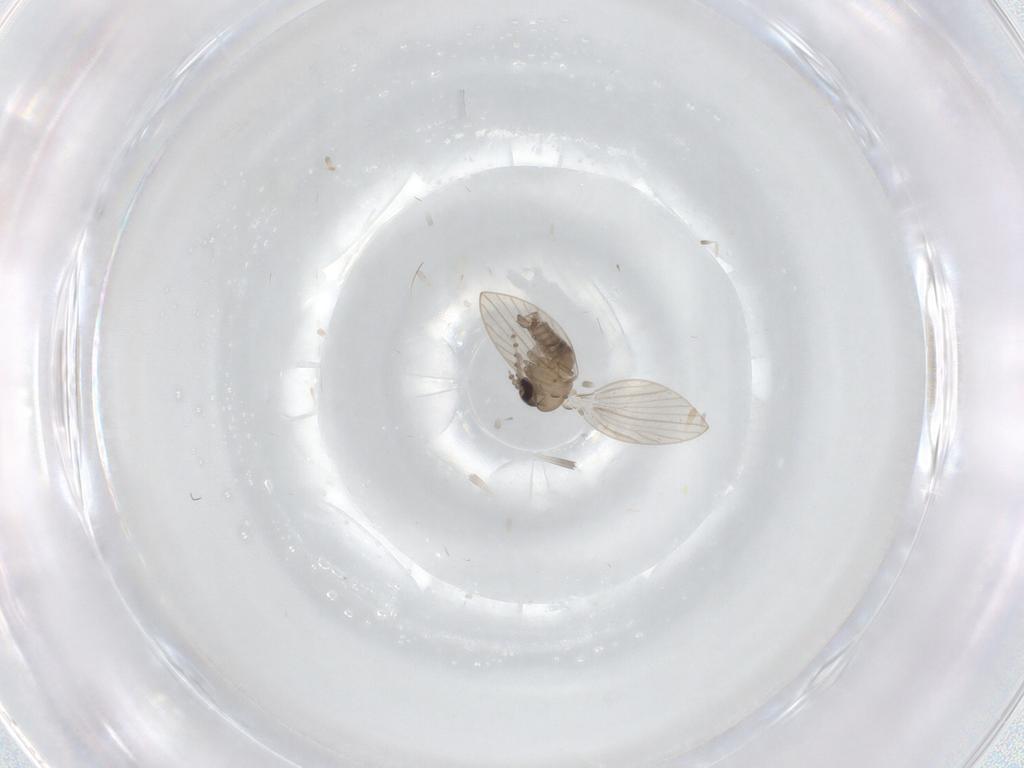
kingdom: Animalia
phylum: Arthropoda
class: Insecta
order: Diptera
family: Psychodidae
